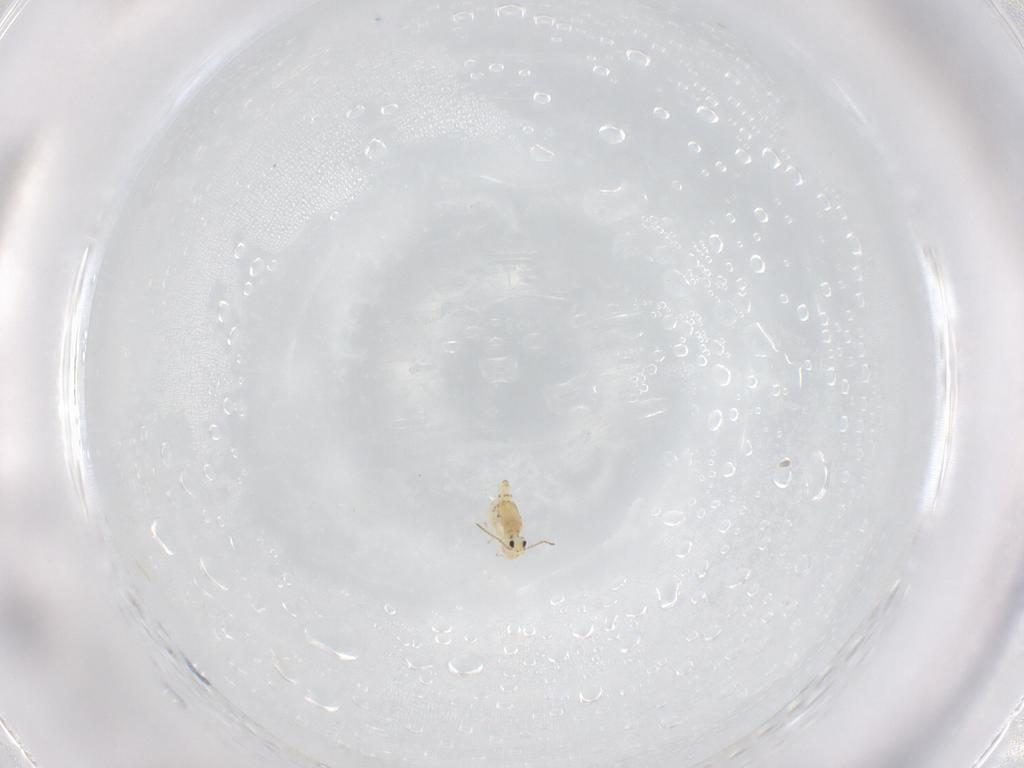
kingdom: Animalia
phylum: Arthropoda
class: Collembola
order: Symphypleona
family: Bourletiellidae
